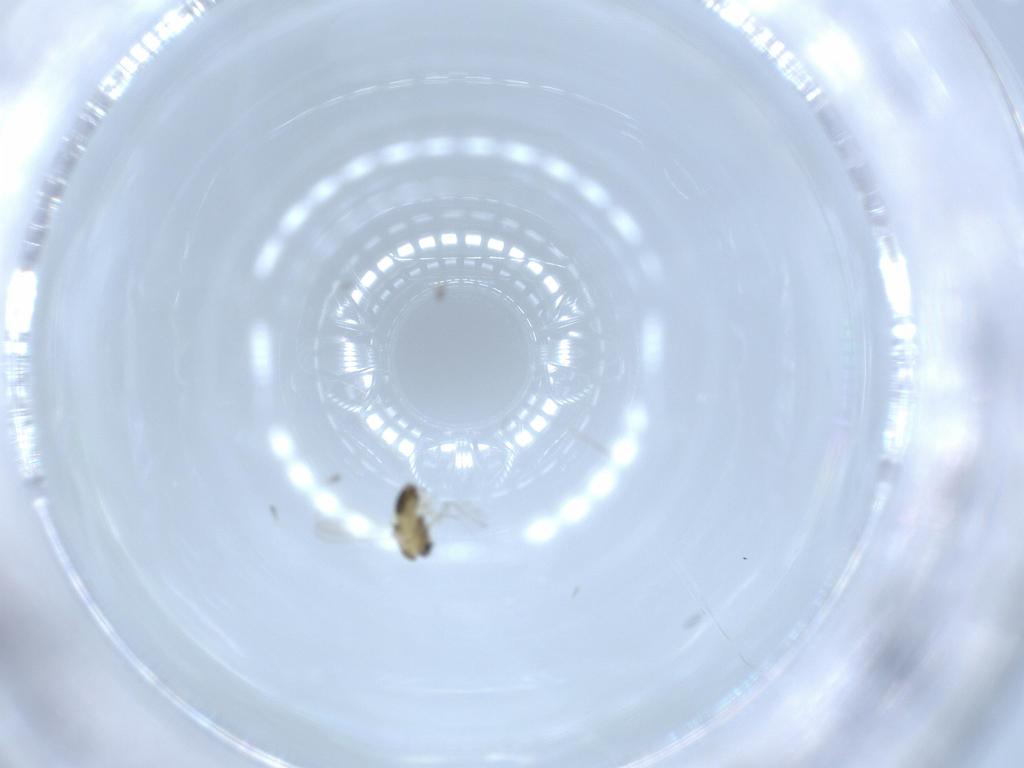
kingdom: Animalia
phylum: Arthropoda
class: Insecta
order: Diptera
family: Chironomidae
